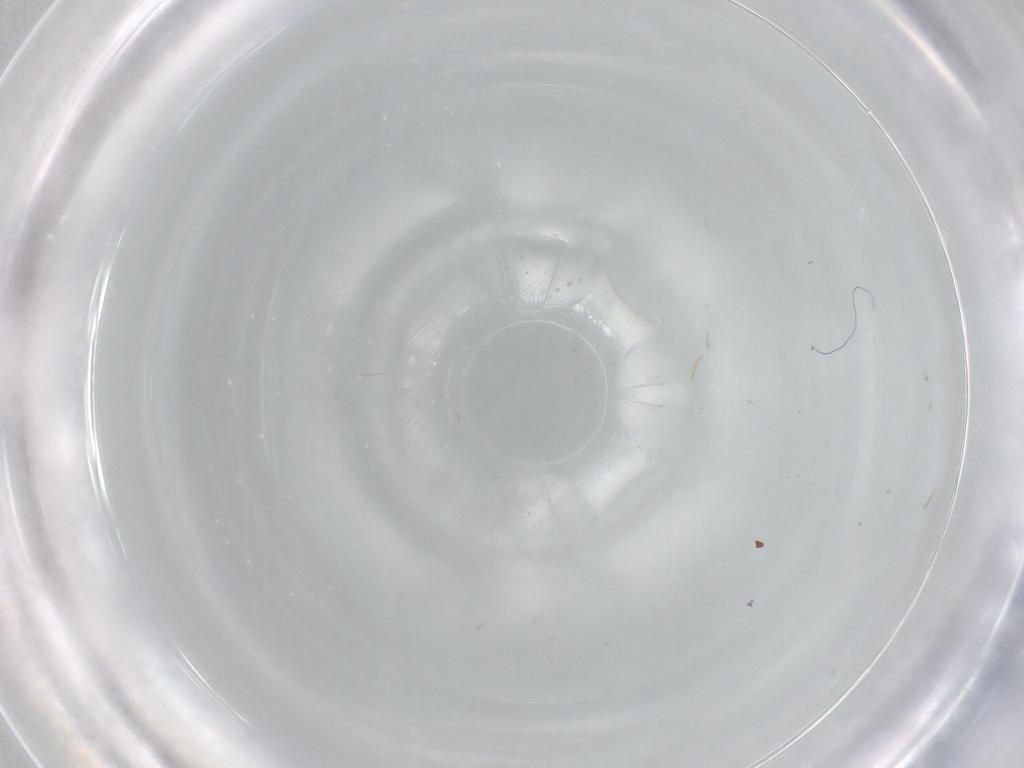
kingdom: Animalia
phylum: Arthropoda
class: Insecta
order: Diptera
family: Chironomidae
